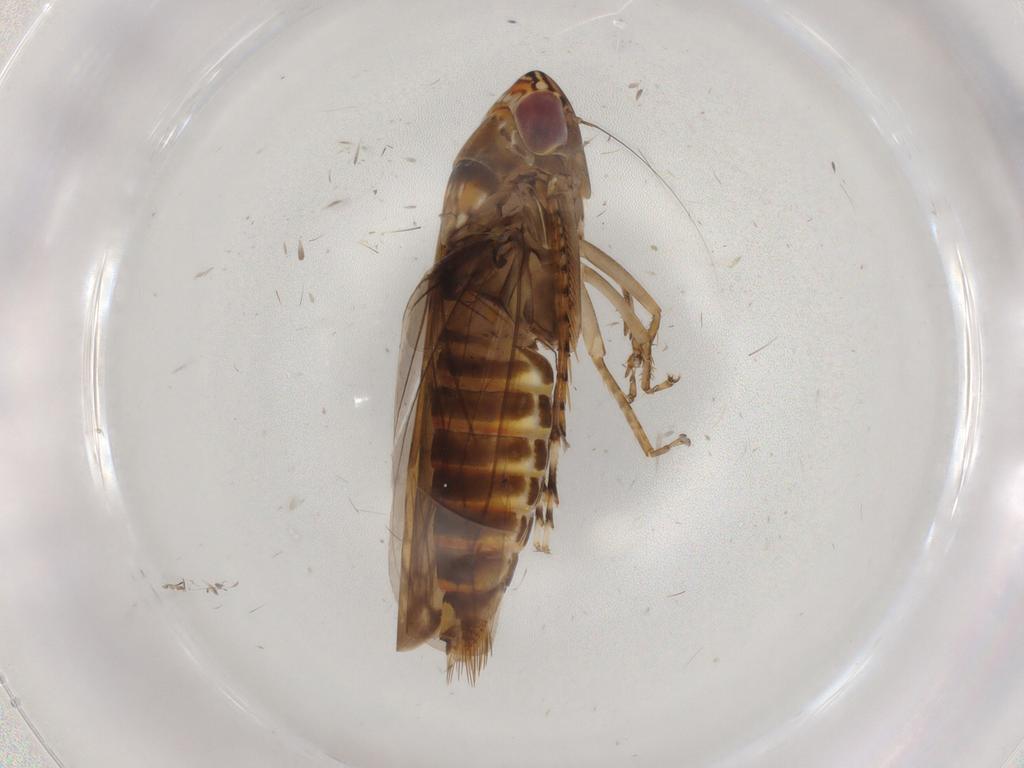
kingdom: Animalia
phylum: Arthropoda
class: Insecta
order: Hemiptera
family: Cicadellidae
